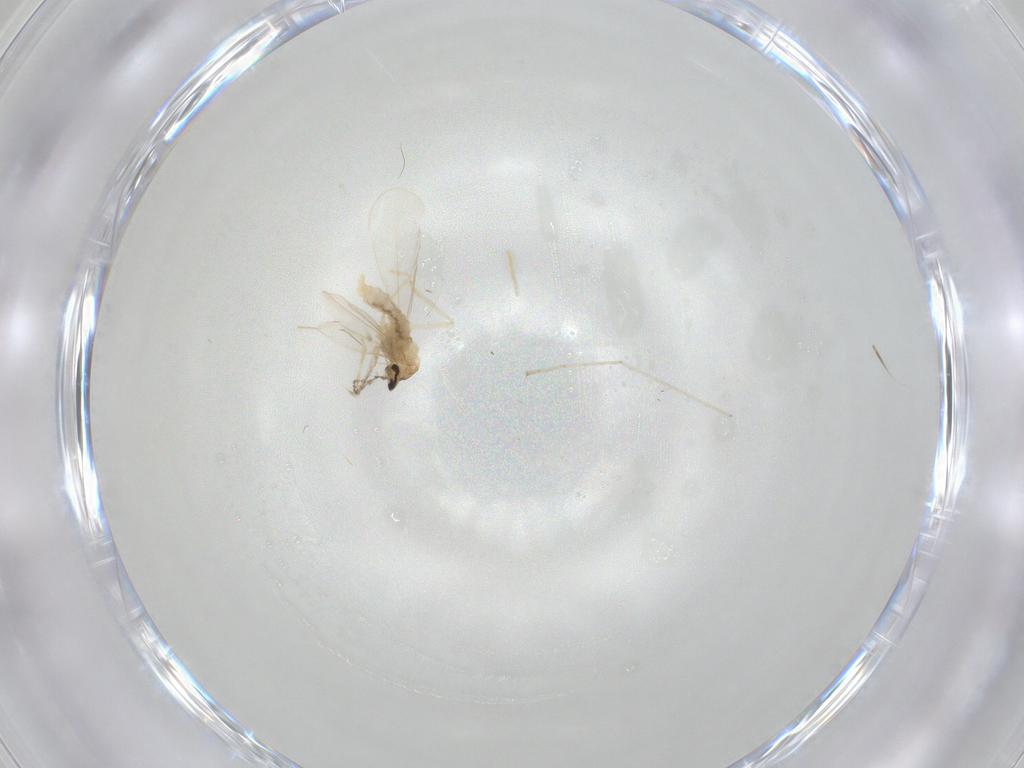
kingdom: Animalia
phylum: Arthropoda
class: Insecta
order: Diptera
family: Cecidomyiidae
